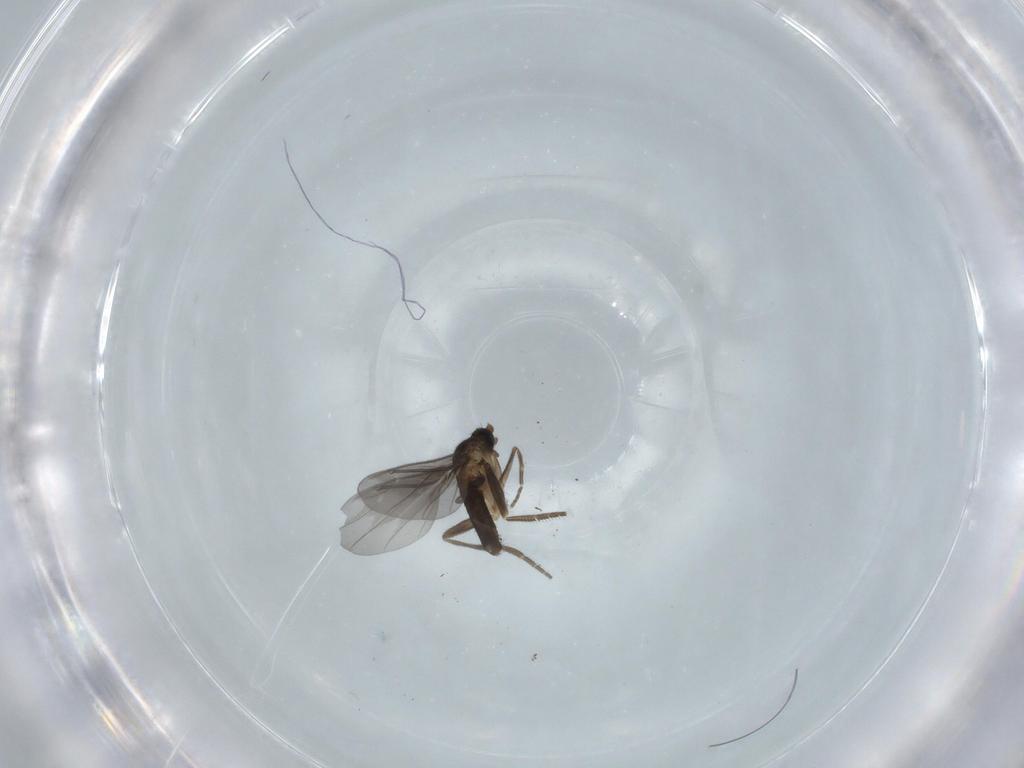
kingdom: Animalia
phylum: Arthropoda
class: Insecta
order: Diptera
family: Phoridae
